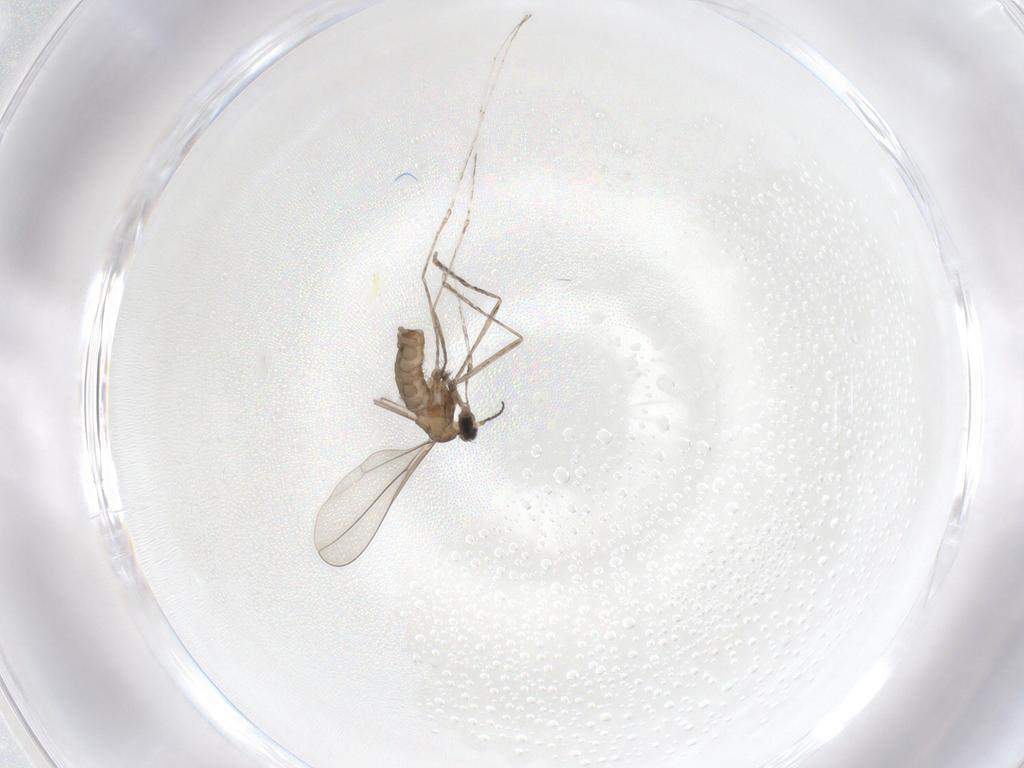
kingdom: Animalia
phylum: Arthropoda
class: Insecta
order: Diptera
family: Cecidomyiidae
